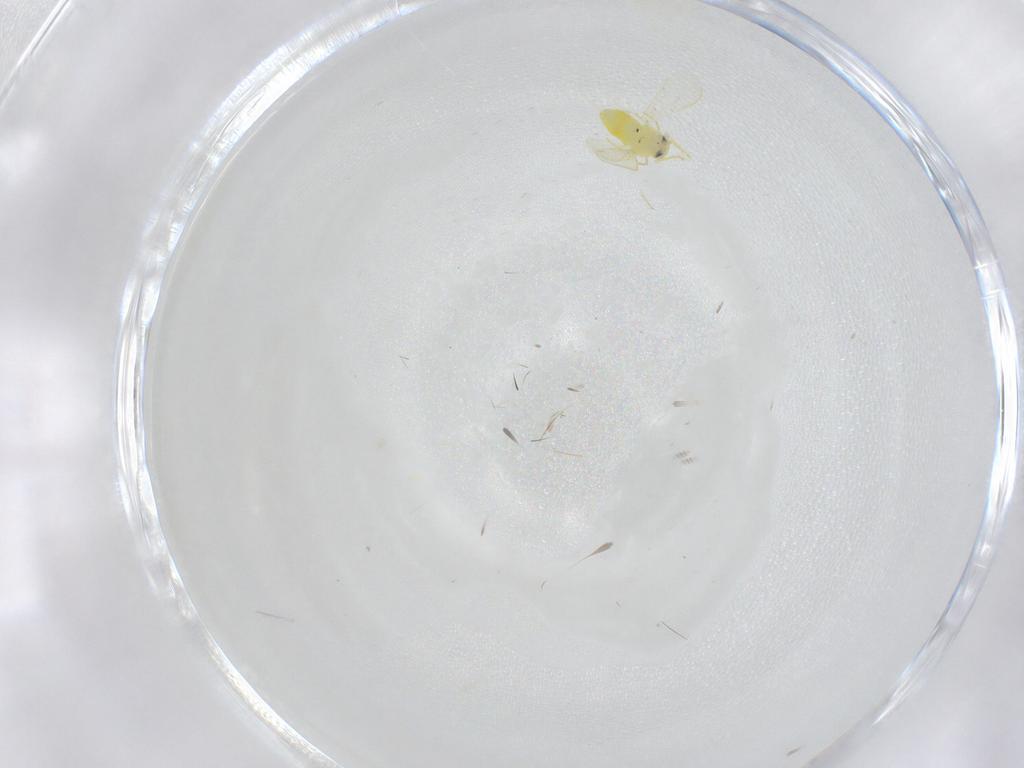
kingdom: Animalia
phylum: Arthropoda
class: Insecta
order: Hemiptera
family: Aleyrodidae
